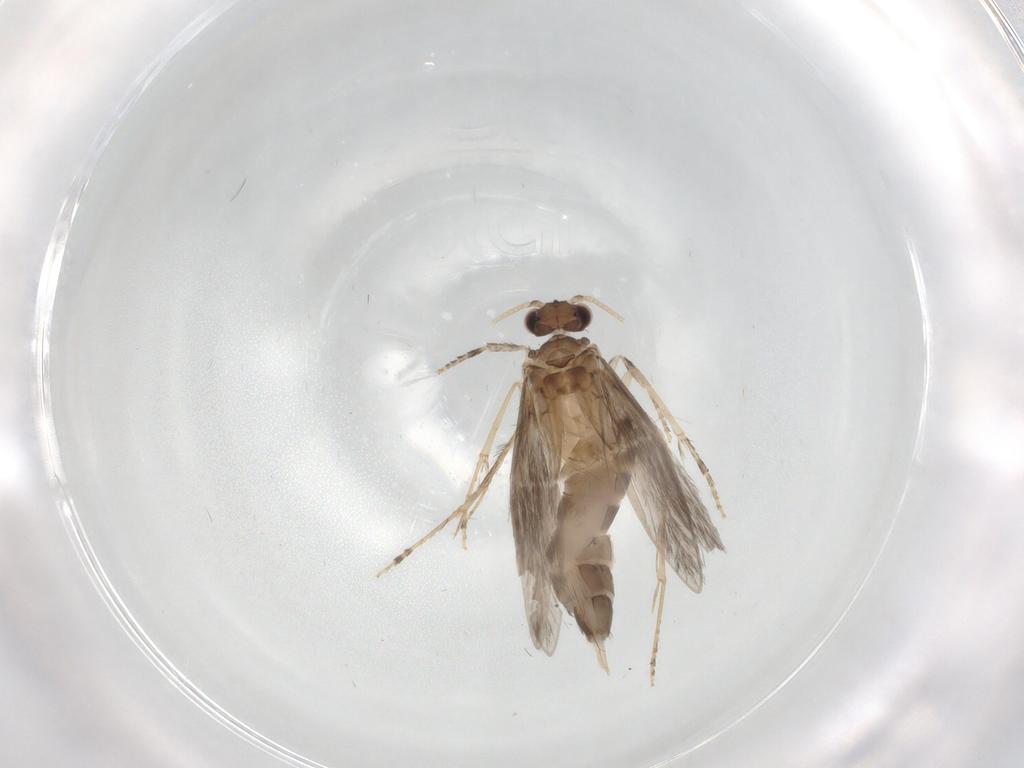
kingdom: Animalia
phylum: Arthropoda
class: Insecta
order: Trichoptera
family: Hydroptilidae
